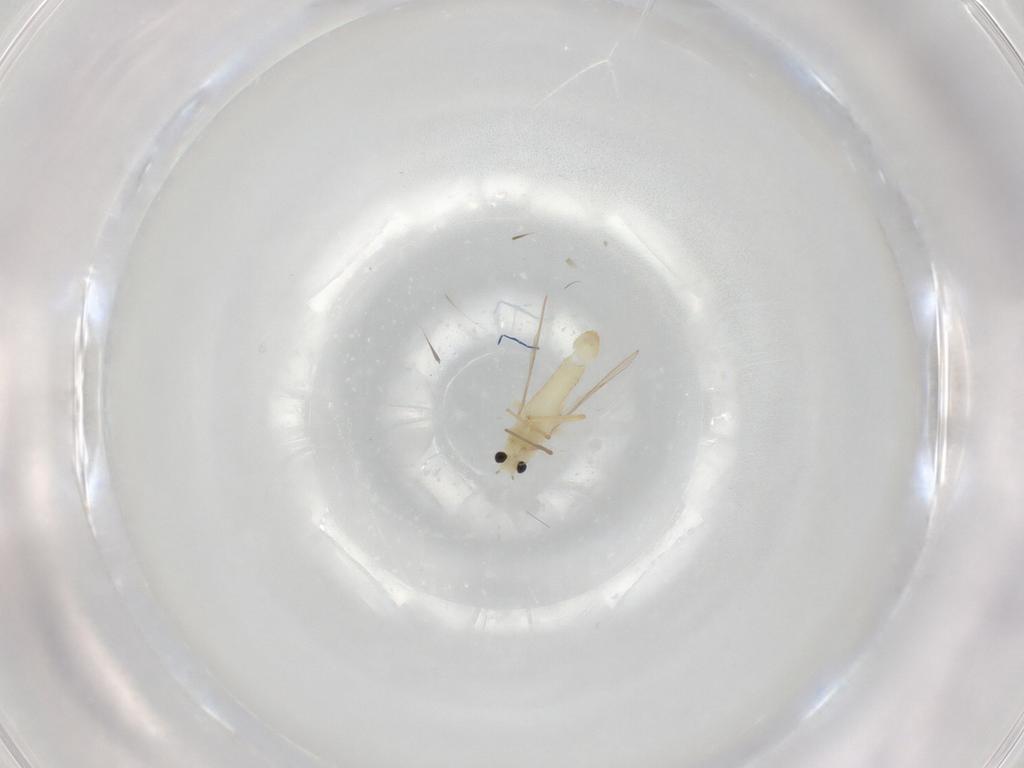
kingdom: Animalia
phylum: Arthropoda
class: Insecta
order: Diptera
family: Chironomidae
